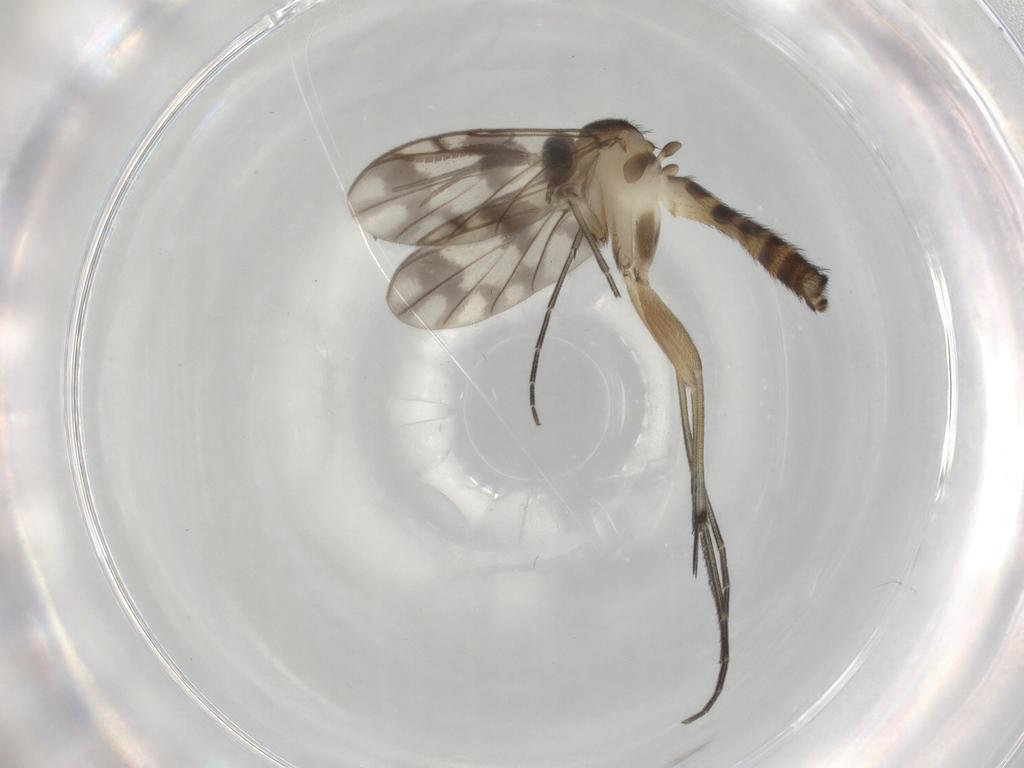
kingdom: Animalia
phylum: Arthropoda
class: Insecta
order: Diptera
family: Keroplatidae
